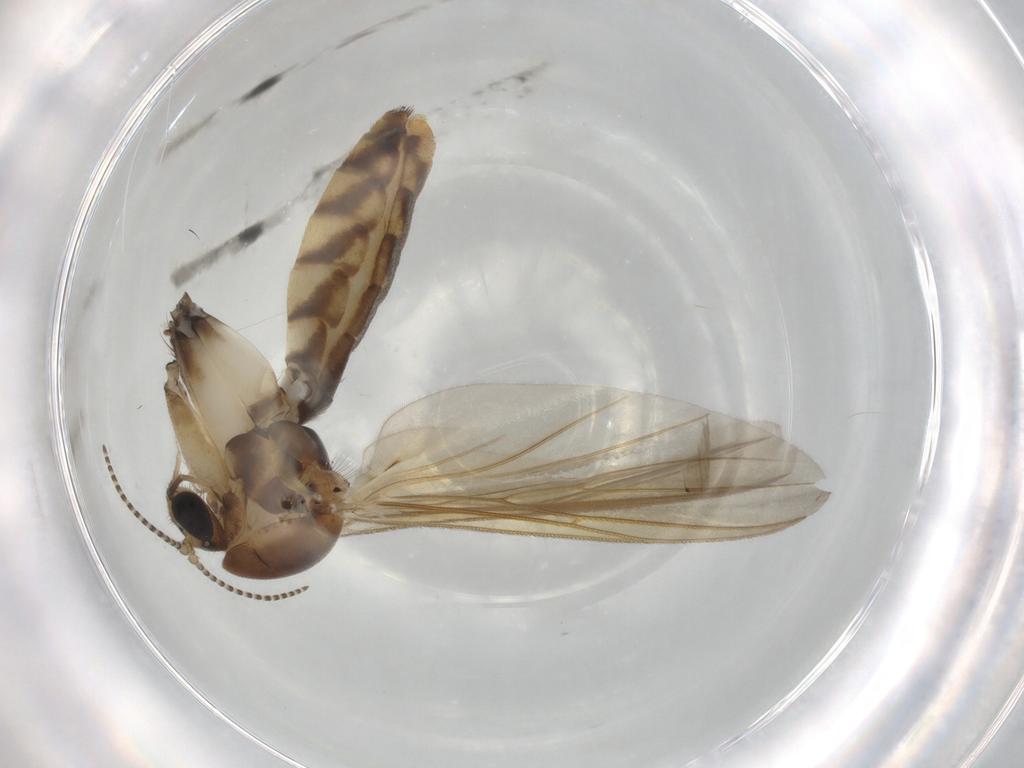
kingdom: Animalia
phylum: Arthropoda
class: Insecta
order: Diptera
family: Mycetophilidae
